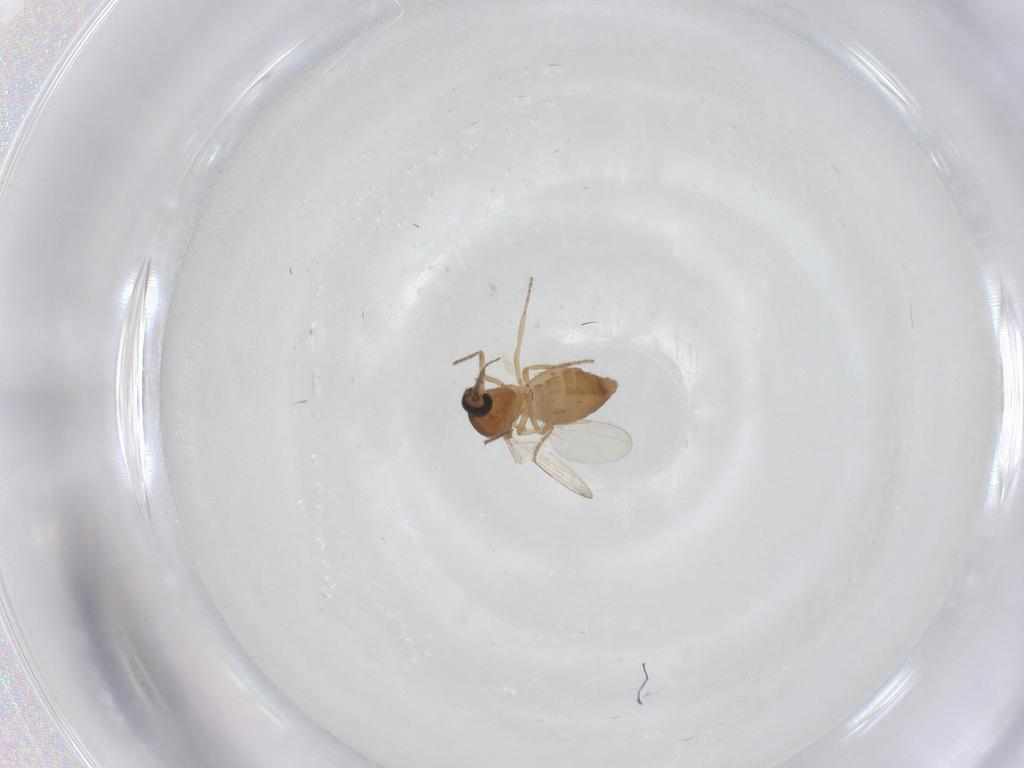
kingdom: Animalia
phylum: Arthropoda
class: Insecta
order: Diptera
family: Ceratopogonidae
